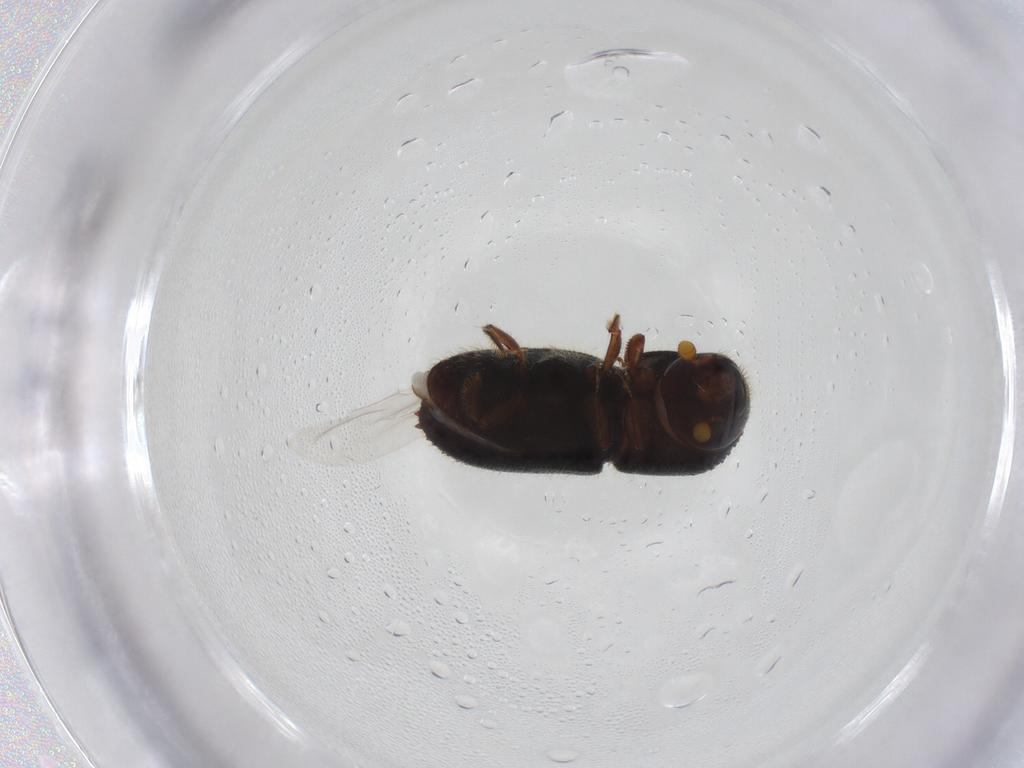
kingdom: Animalia
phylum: Arthropoda
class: Insecta
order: Coleoptera
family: Curculionidae
